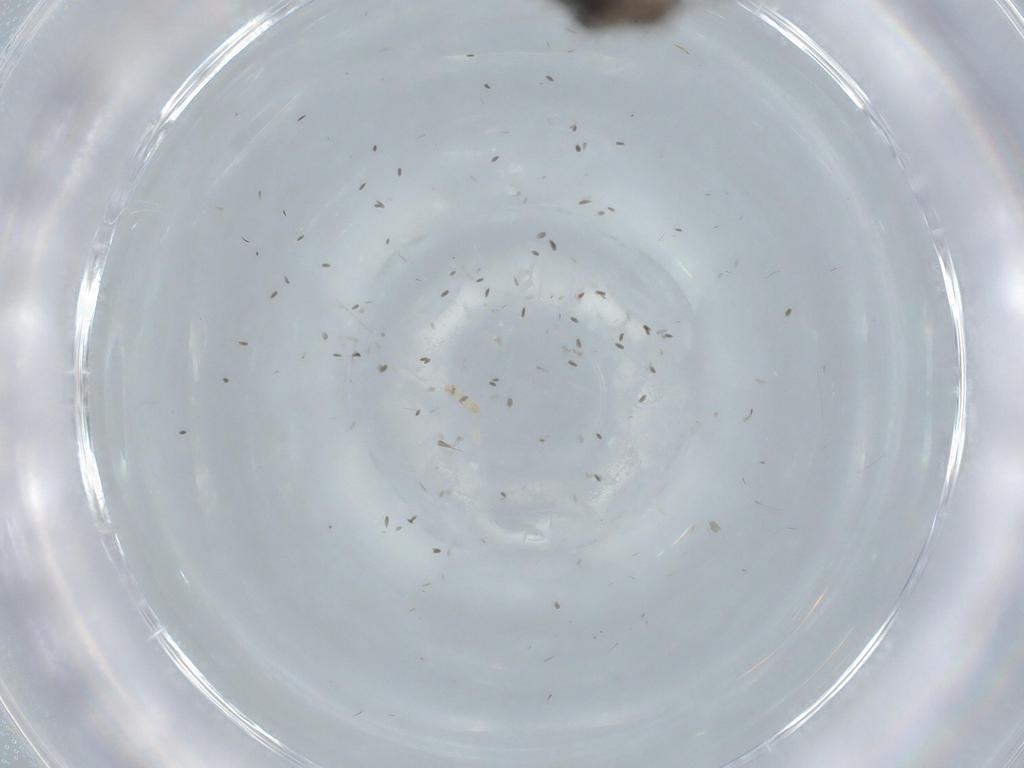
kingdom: Animalia
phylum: Arthropoda
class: Insecta
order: Lepidoptera
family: Nepticulidae
